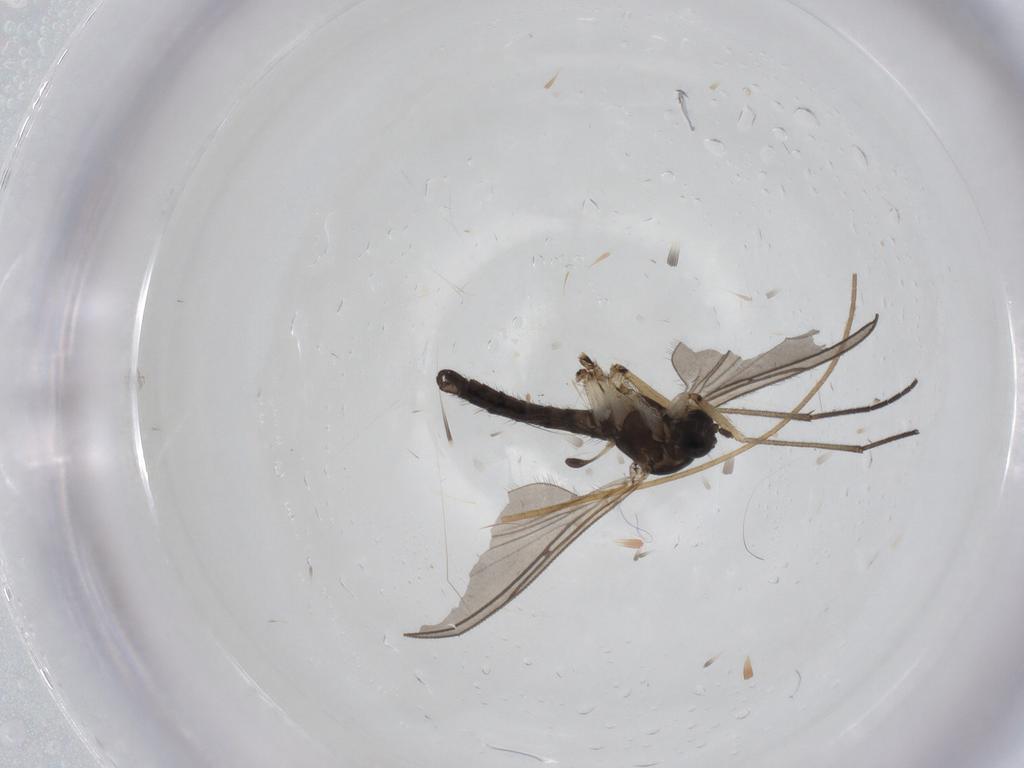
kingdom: Animalia
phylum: Arthropoda
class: Insecta
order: Diptera
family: Sciaridae
